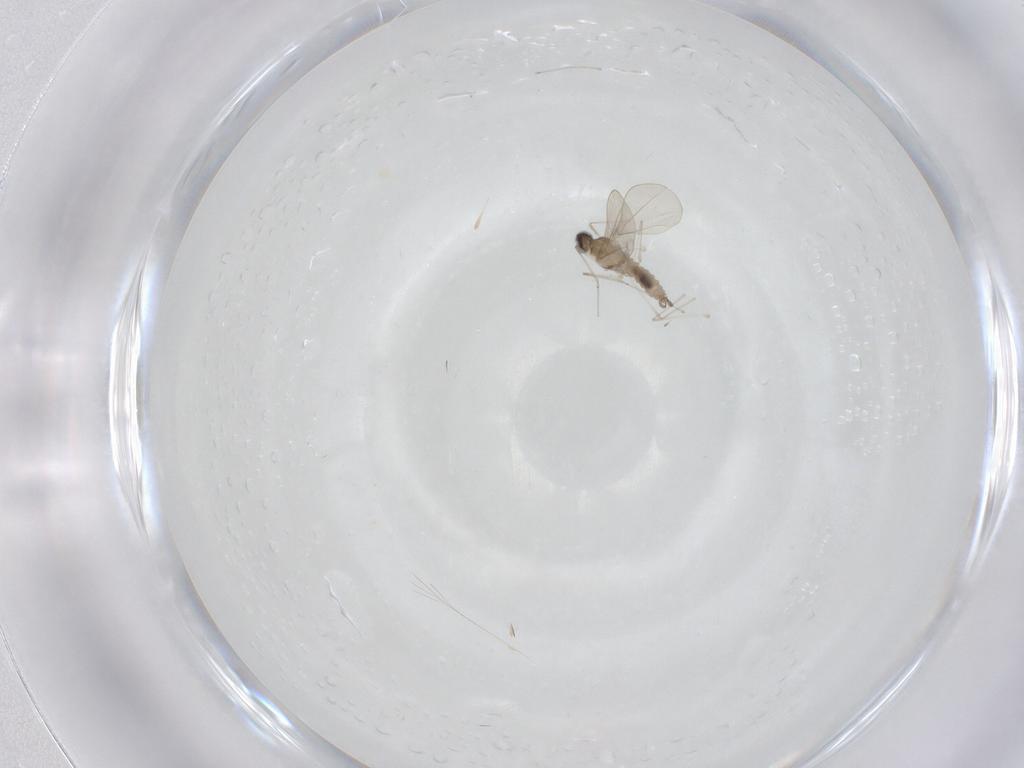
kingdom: Animalia
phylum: Arthropoda
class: Insecta
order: Diptera
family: Cecidomyiidae
